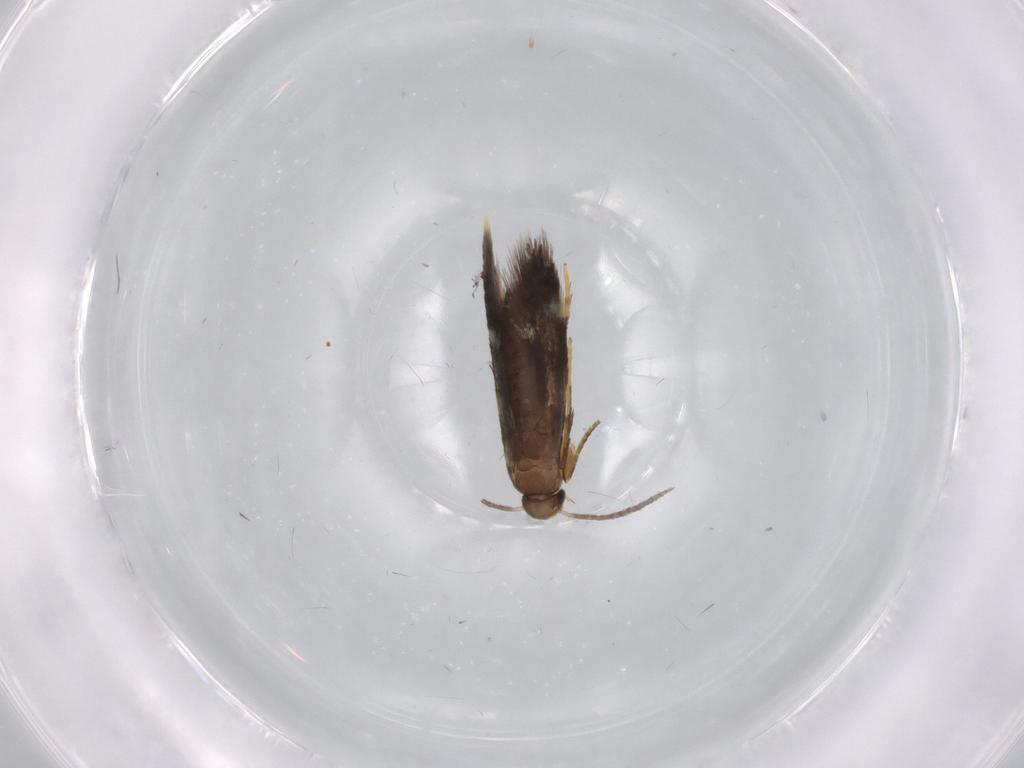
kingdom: Animalia
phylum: Arthropoda
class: Insecta
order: Lepidoptera
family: Heliozelidae
